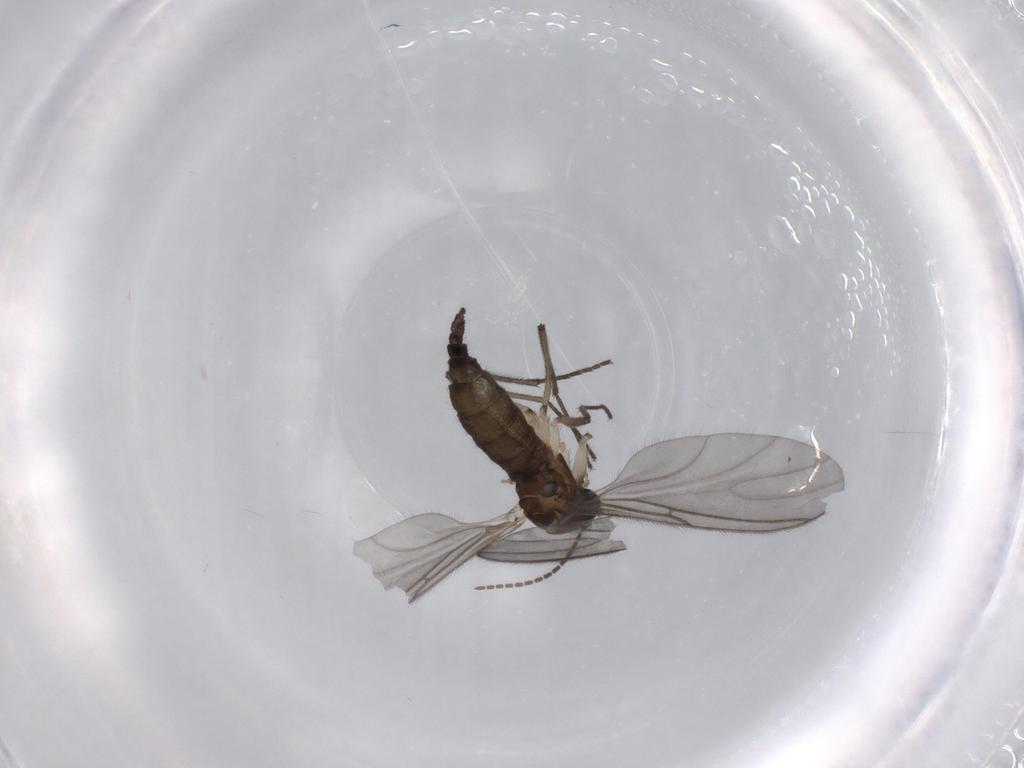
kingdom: Animalia
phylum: Arthropoda
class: Insecta
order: Diptera
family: Sciaridae
